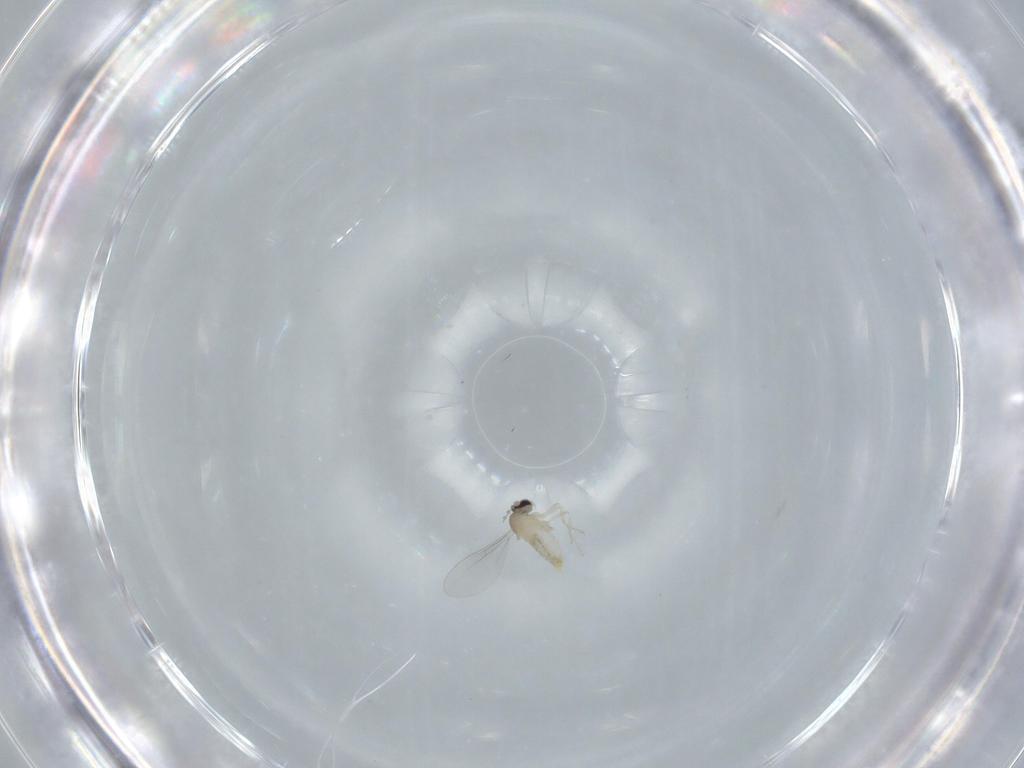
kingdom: Animalia
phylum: Arthropoda
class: Insecta
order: Diptera
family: Cecidomyiidae
